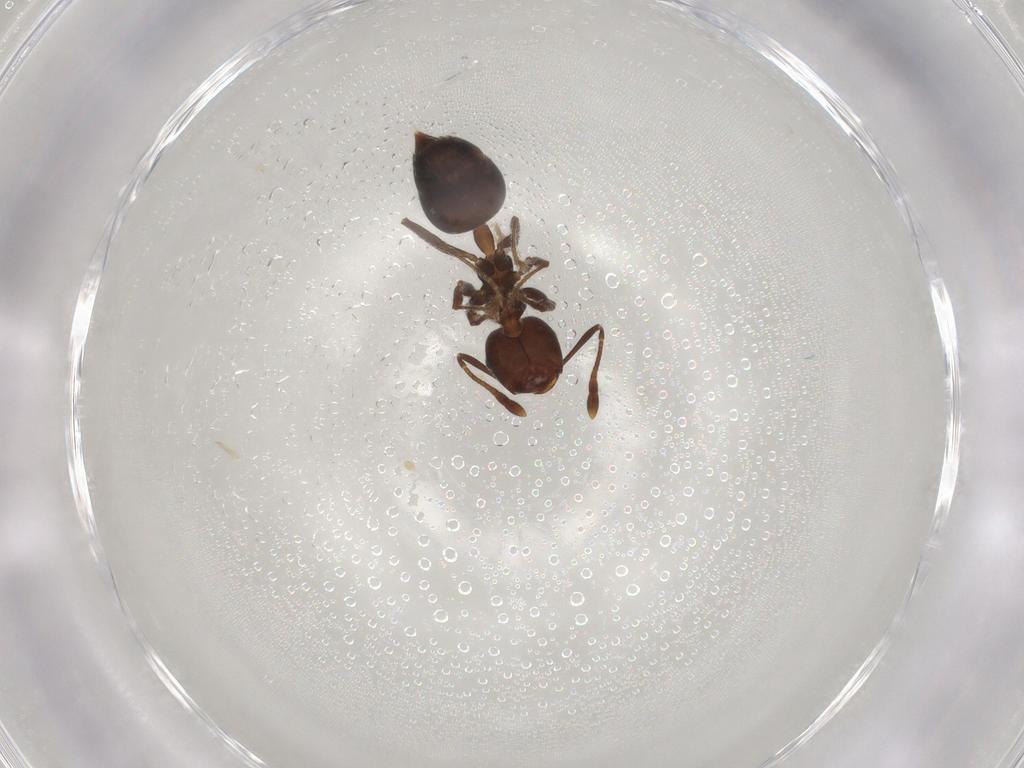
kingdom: Animalia
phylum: Arthropoda
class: Insecta
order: Hymenoptera
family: Formicidae
